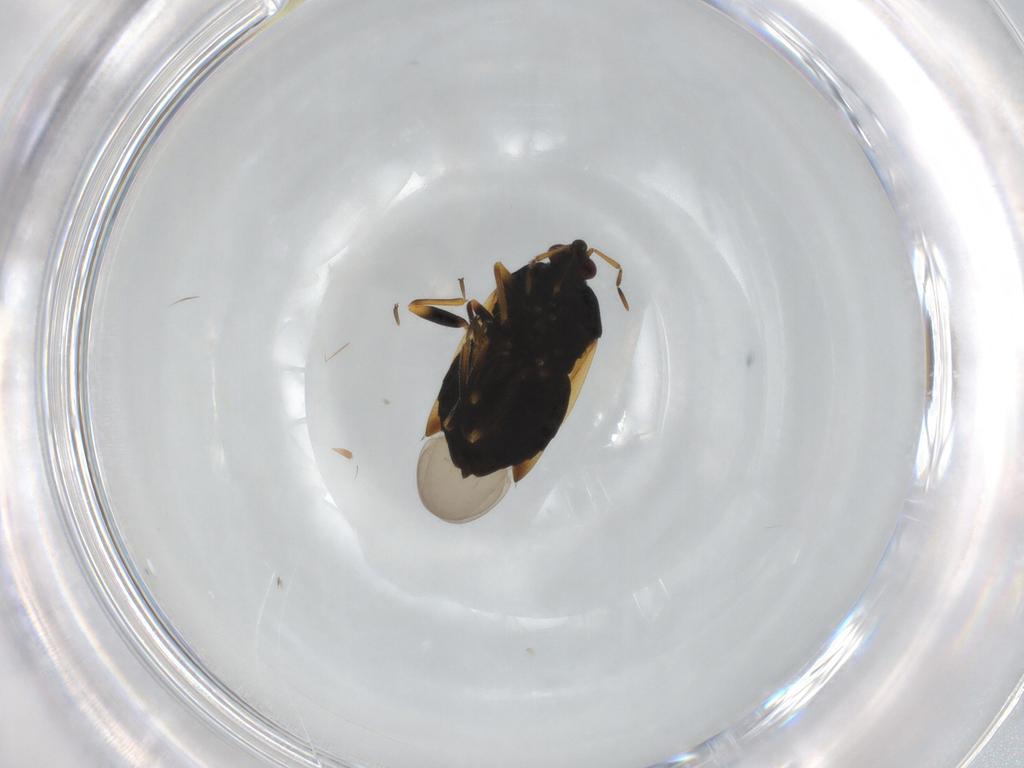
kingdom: Animalia
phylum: Arthropoda
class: Insecta
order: Hemiptera
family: Anthocoridae
